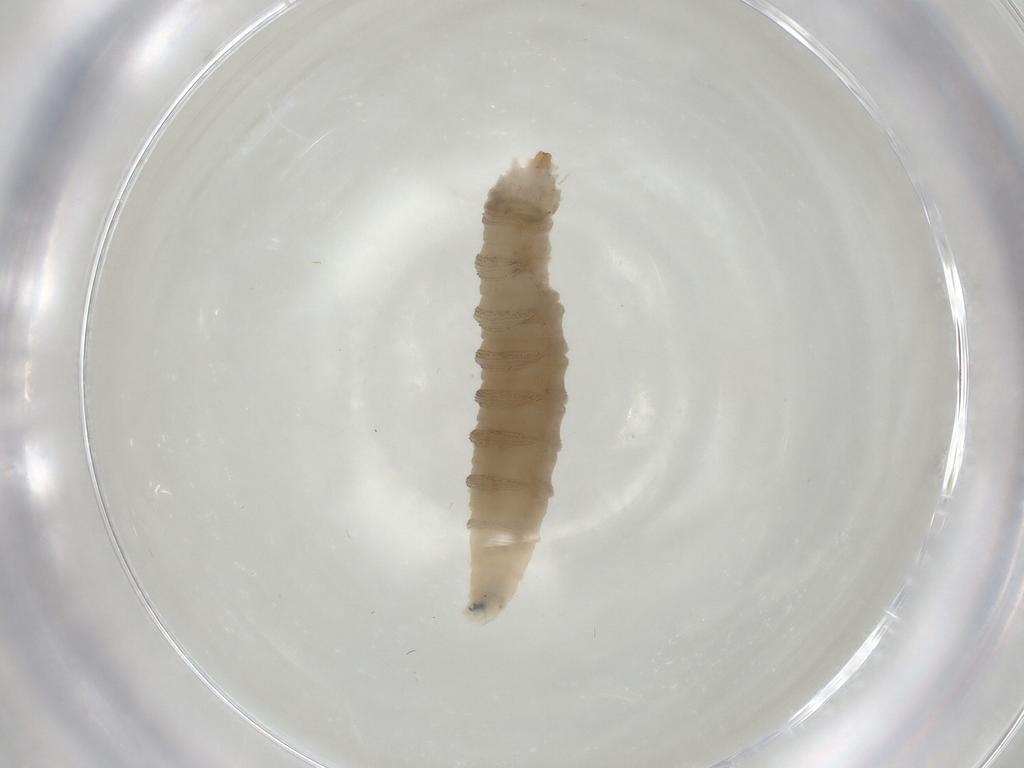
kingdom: Animalia
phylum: Arthropoda
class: Insecta
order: Diptera
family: Drosophilidae
